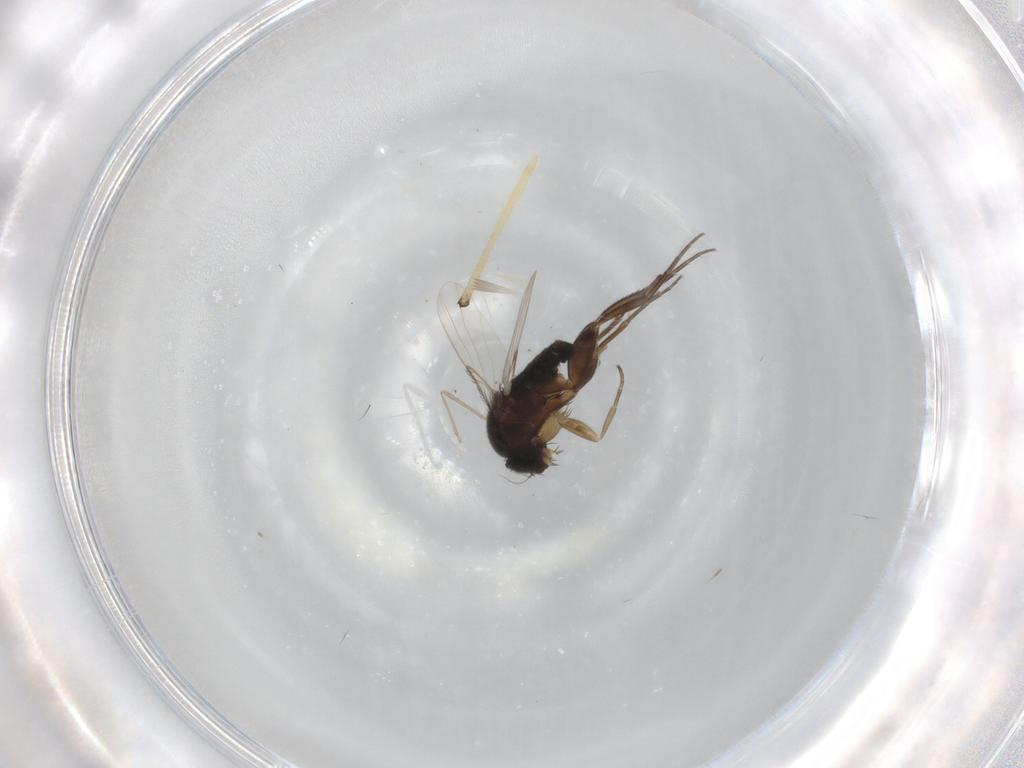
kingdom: Animalia
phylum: Arthropoda
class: Insecta
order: Diptera
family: Phoridae
